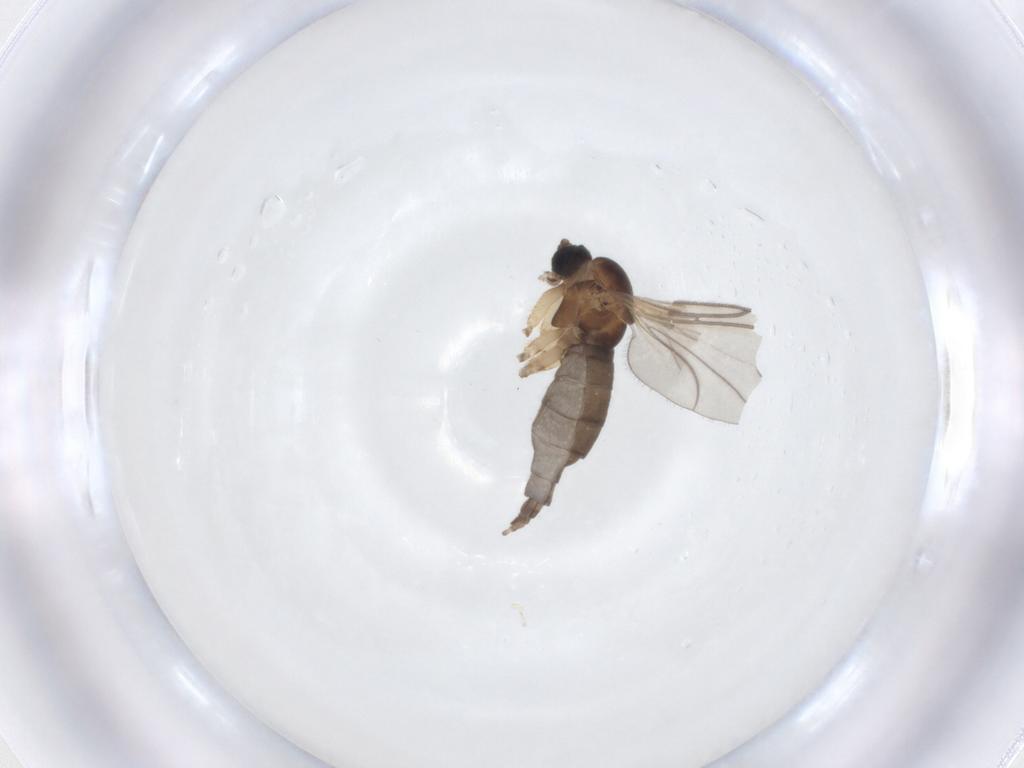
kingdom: Animalia
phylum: Arthropoda
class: Insecta
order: Diptera
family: Sciaridae
